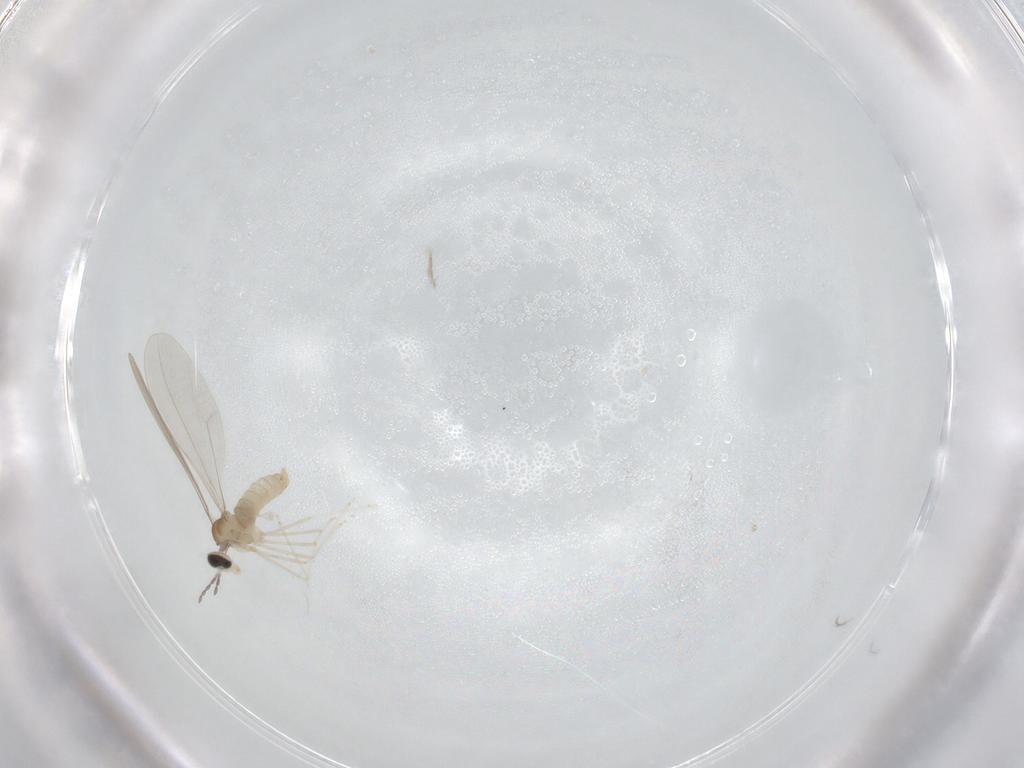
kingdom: Animalia
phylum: Arthropoda
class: Insecta
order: Diptera
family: Cecidomyiidae
